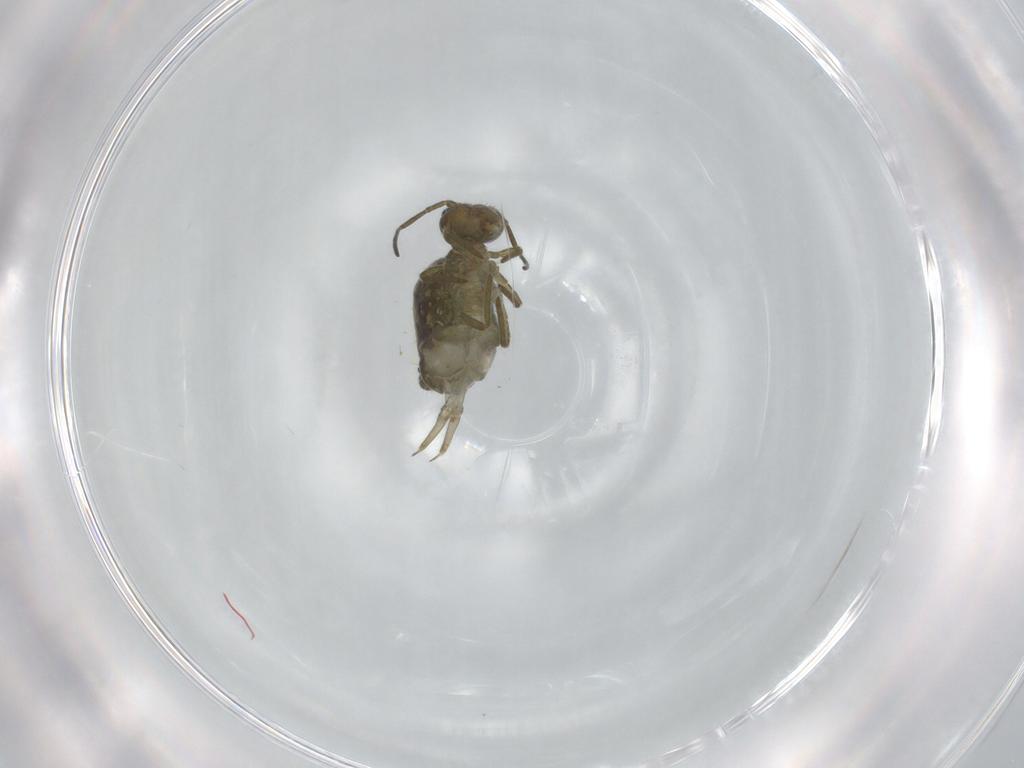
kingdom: Animalia
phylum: Arthropoda
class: Collembola
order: Symphypleona
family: Sminthuridae
